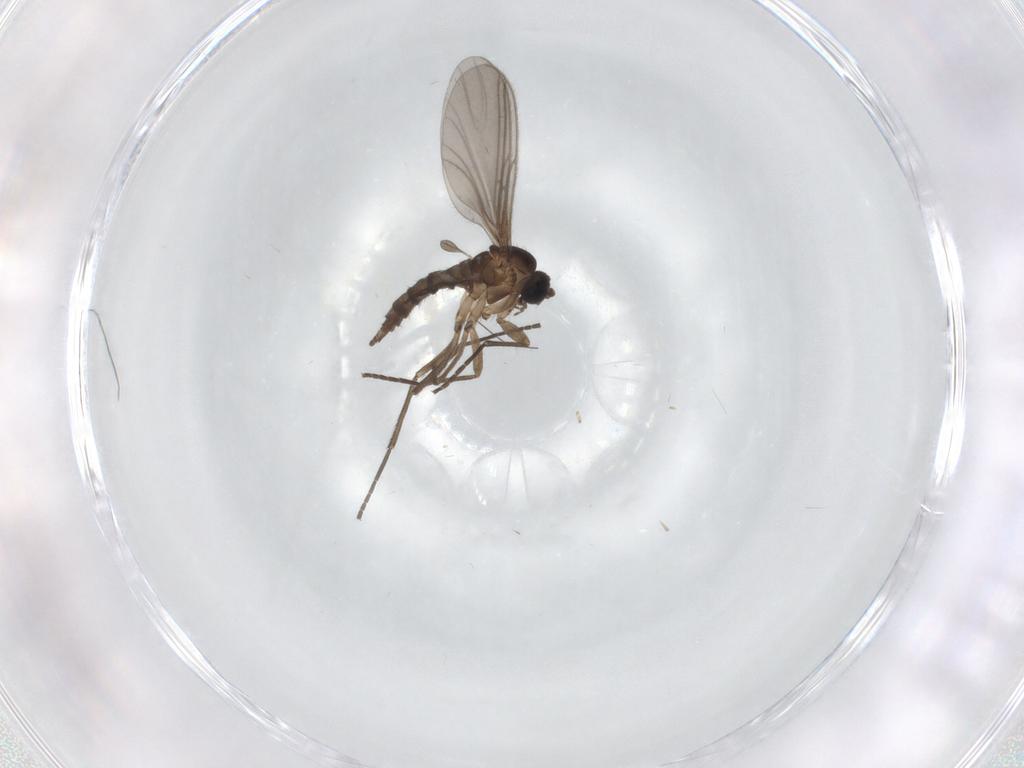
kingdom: Animalia
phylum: Arthropoda
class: Insecta
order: Diptera
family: Sciaridae
